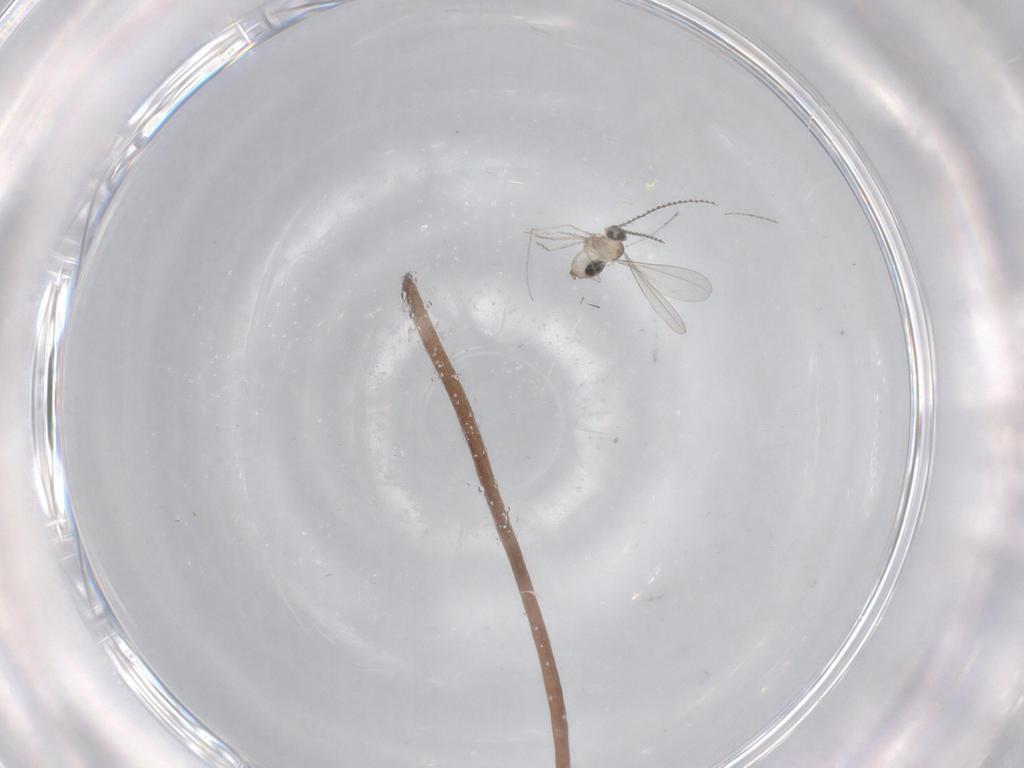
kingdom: Animalia
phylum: Arthropoda
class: Insecta
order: Diptera
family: Cecidomyiidae
